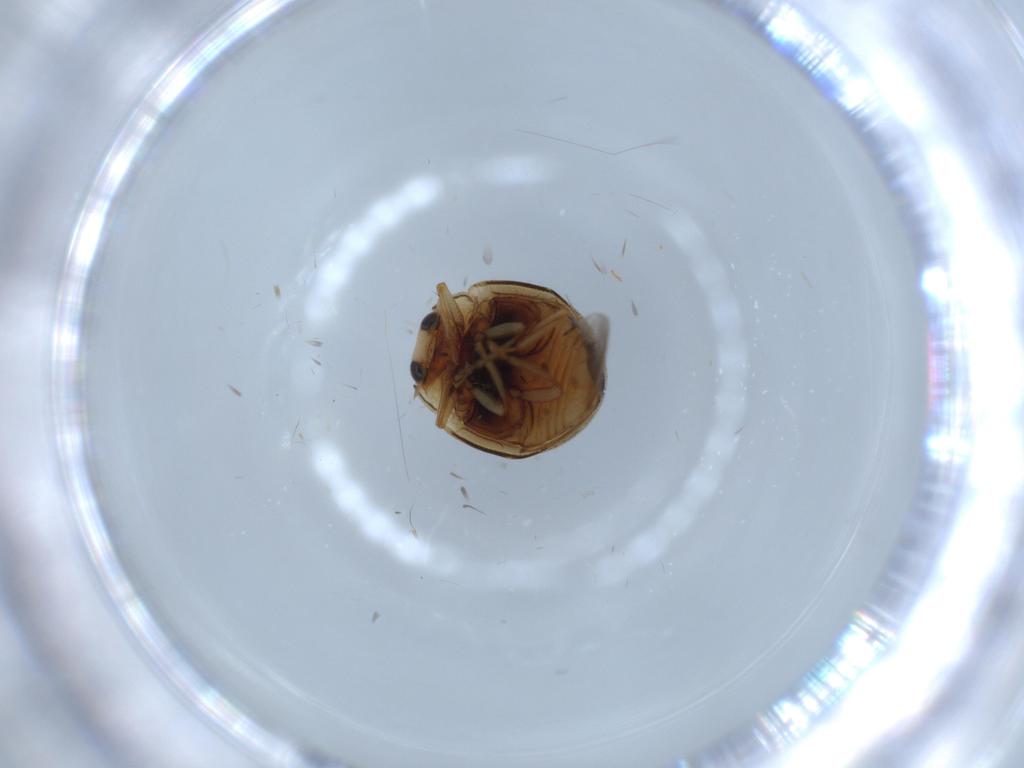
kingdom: Animalia
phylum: Arthropoda
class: Insecta
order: Coleoptera
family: Coccinellidae
